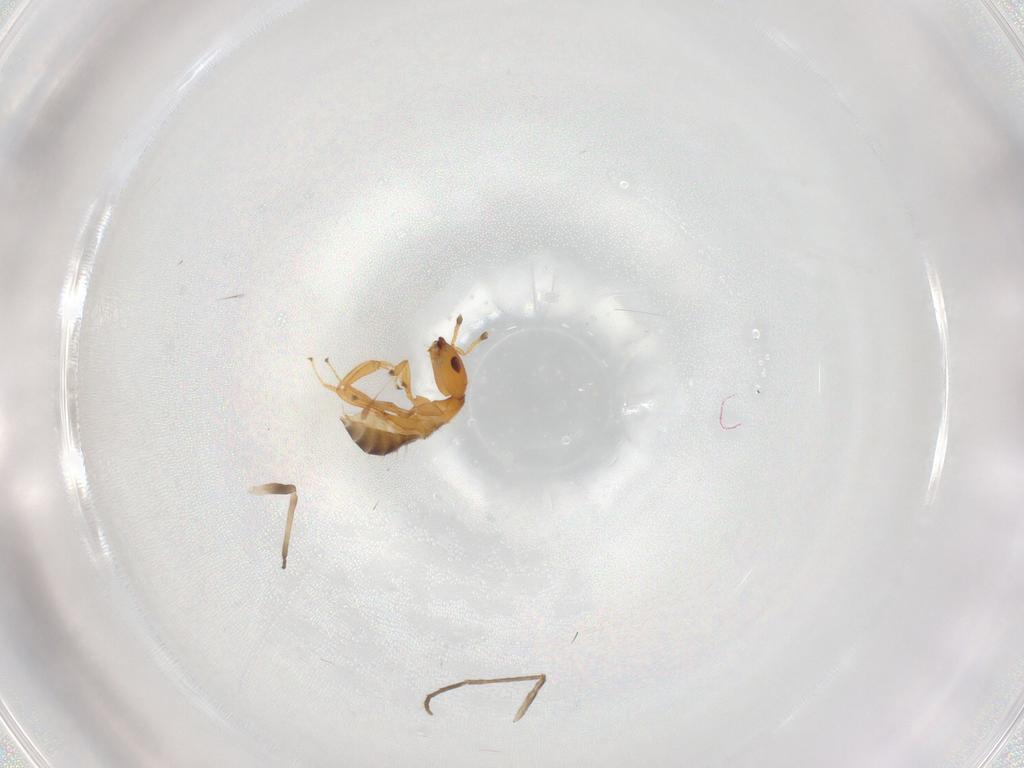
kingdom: Animalia
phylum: Arthropoda
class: Insecta
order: Hymenoptera
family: Pteromalidae
